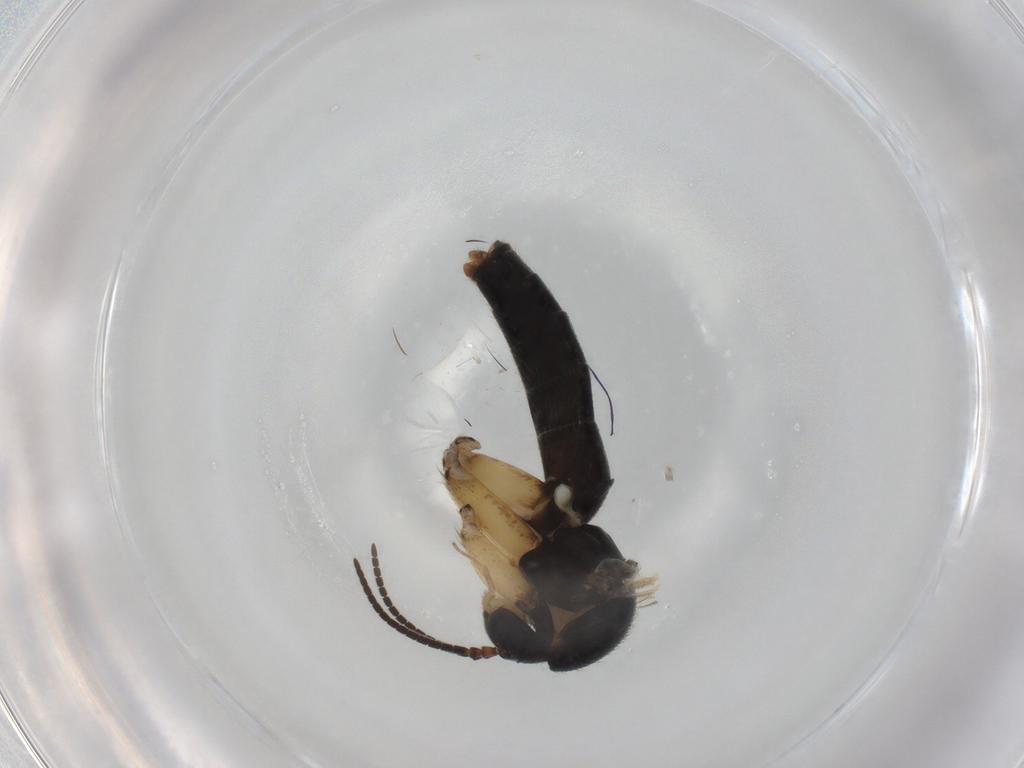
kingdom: Animalia
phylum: Arthropoda
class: Insecta
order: Diptera
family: Mycetophilidae
